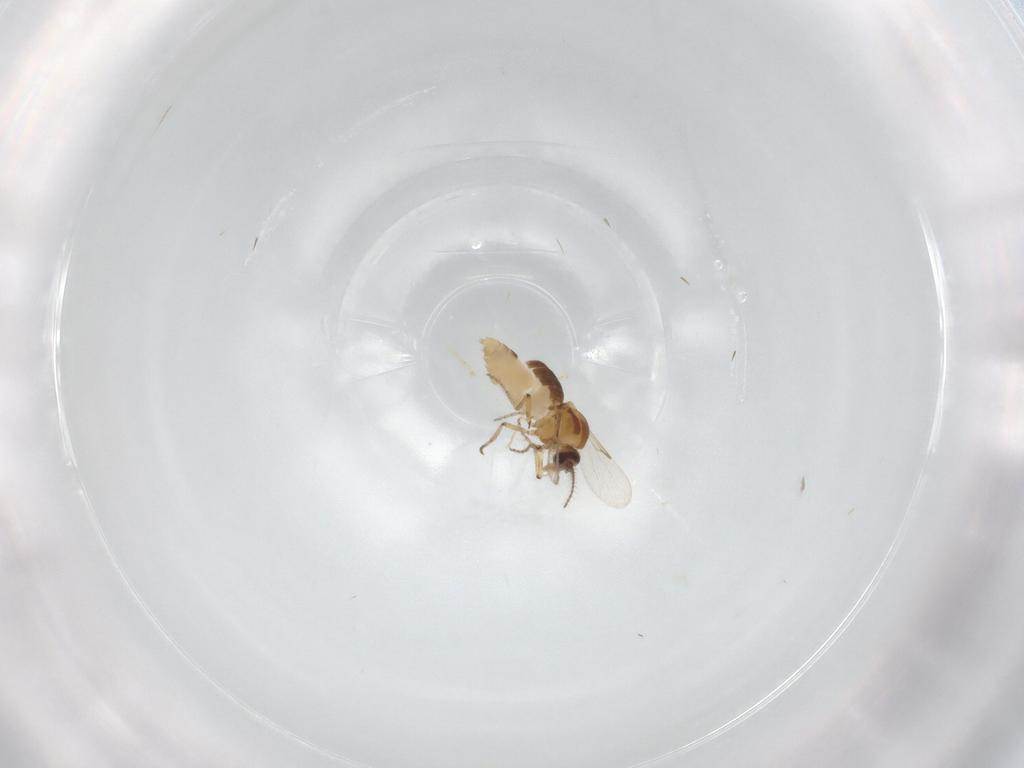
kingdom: Animalia
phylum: Arthropoda
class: Insecta
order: Diptera
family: Ceratopogonidae
